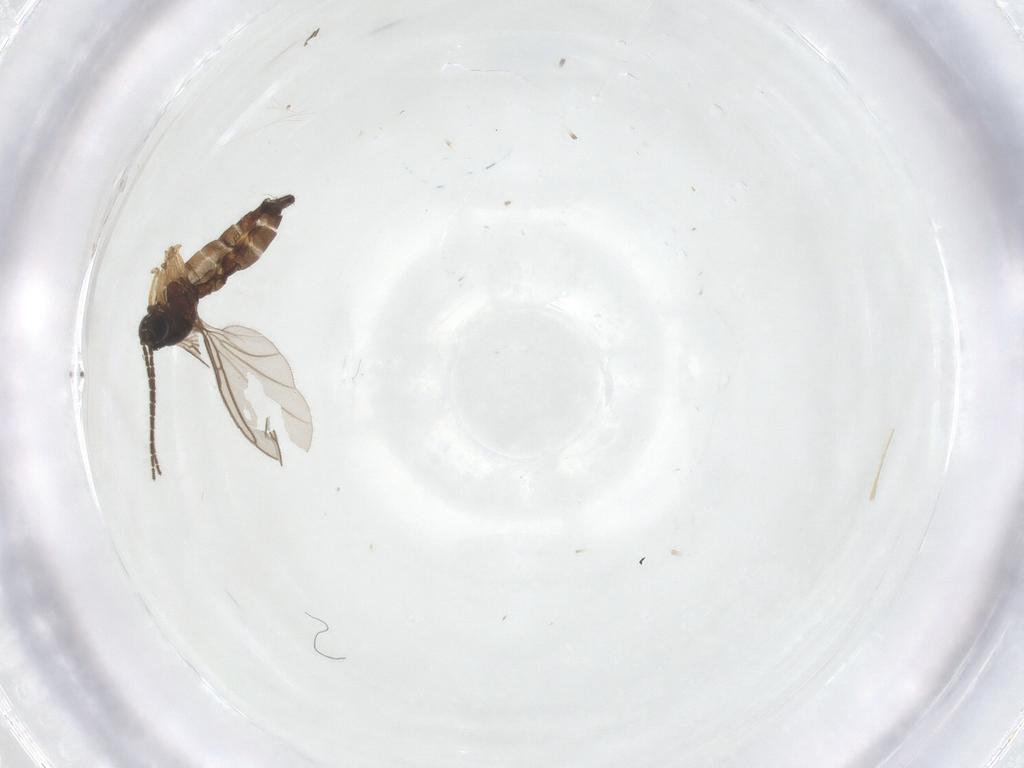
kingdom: Animalia
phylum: Arthropoda
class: Insecta
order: Diptera
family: Sciaridae
